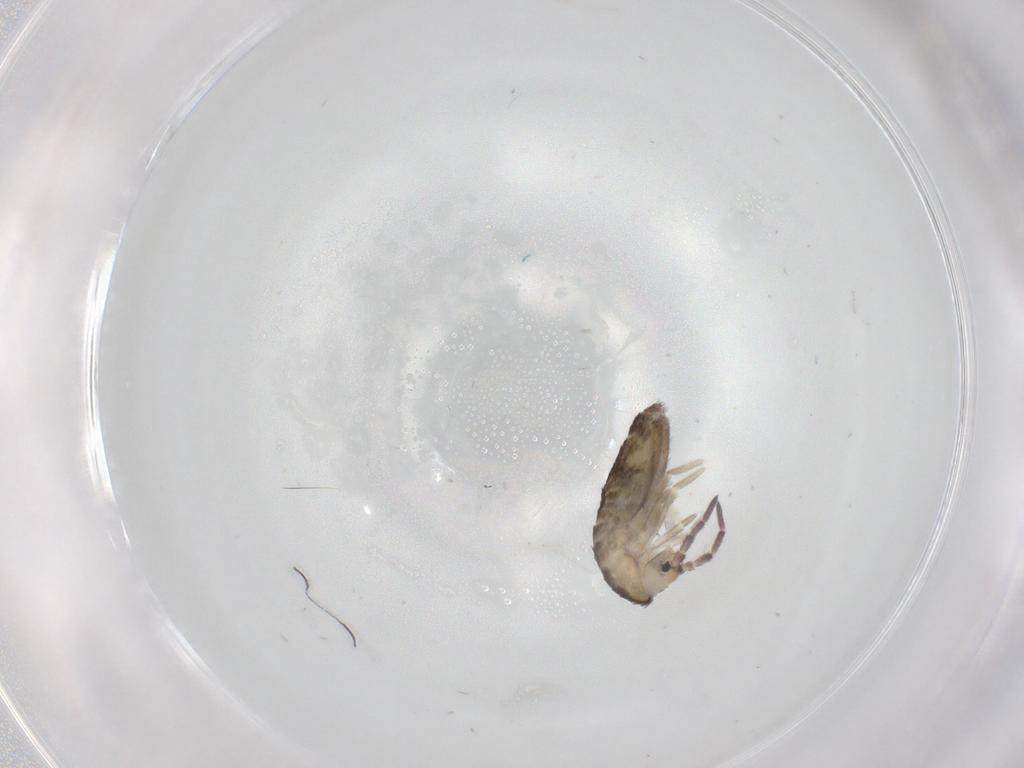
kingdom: Animalia
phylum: Arthropoda
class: Collembola
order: Entomobryomorpha
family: Entomobryidae
